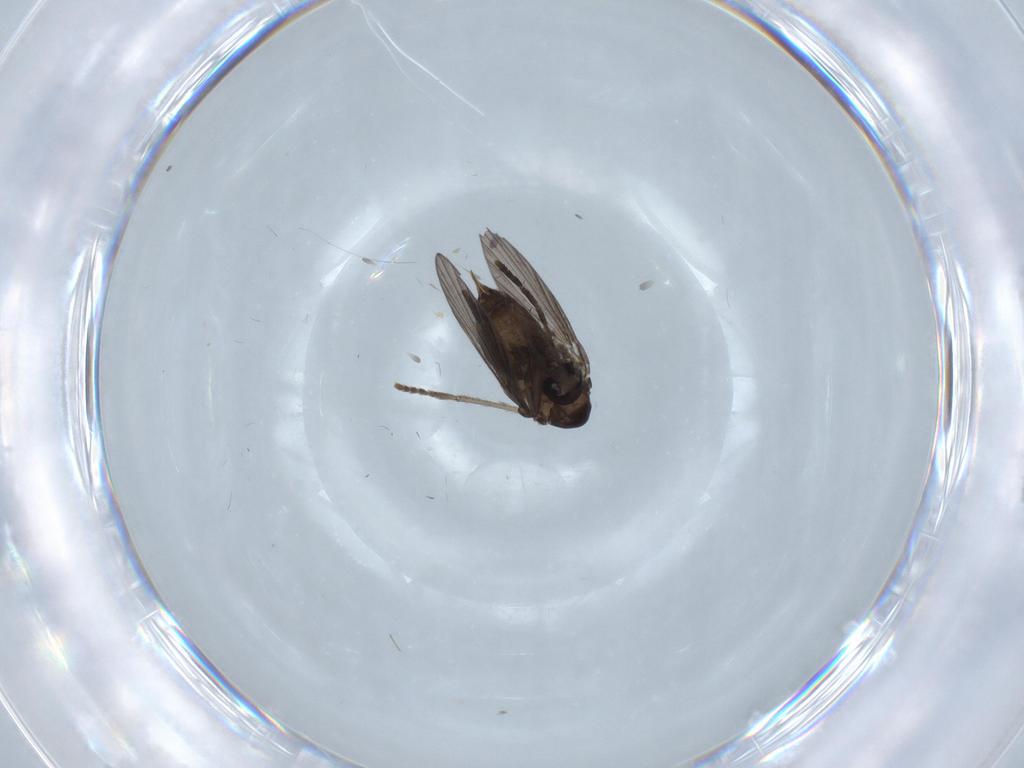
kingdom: Animalia
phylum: Arthropoda
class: Insecta
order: Diptera
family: Psychodidae
